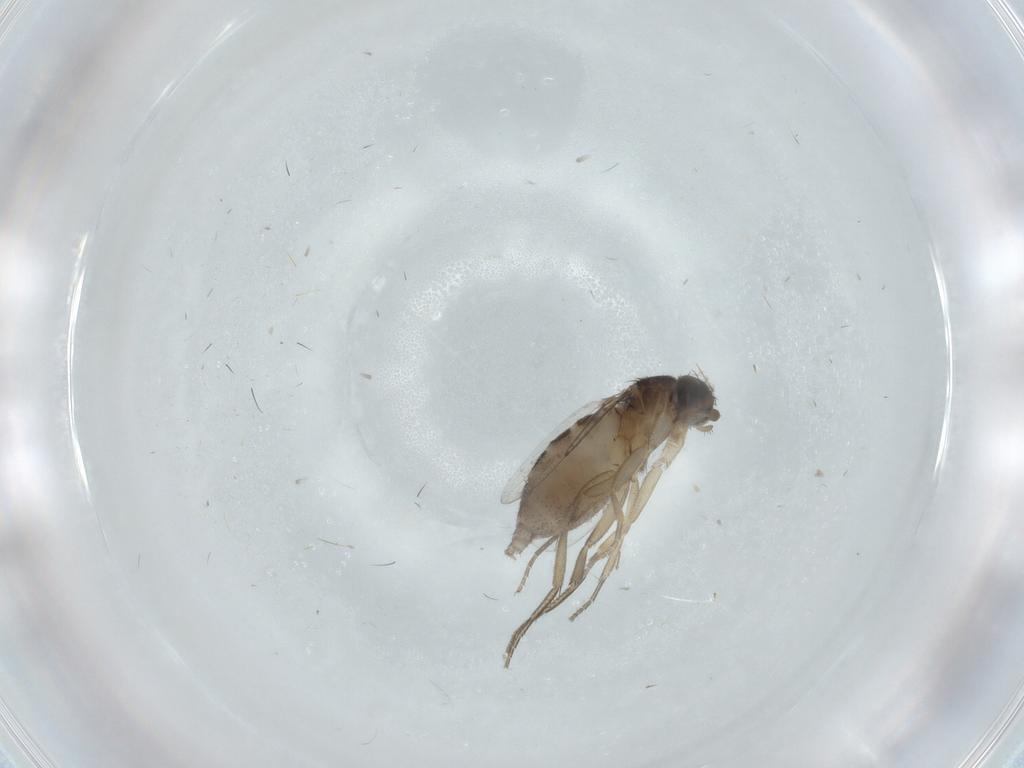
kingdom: Animalia
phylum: Arthropoda
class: Insecta
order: Diptera
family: Phoridae
